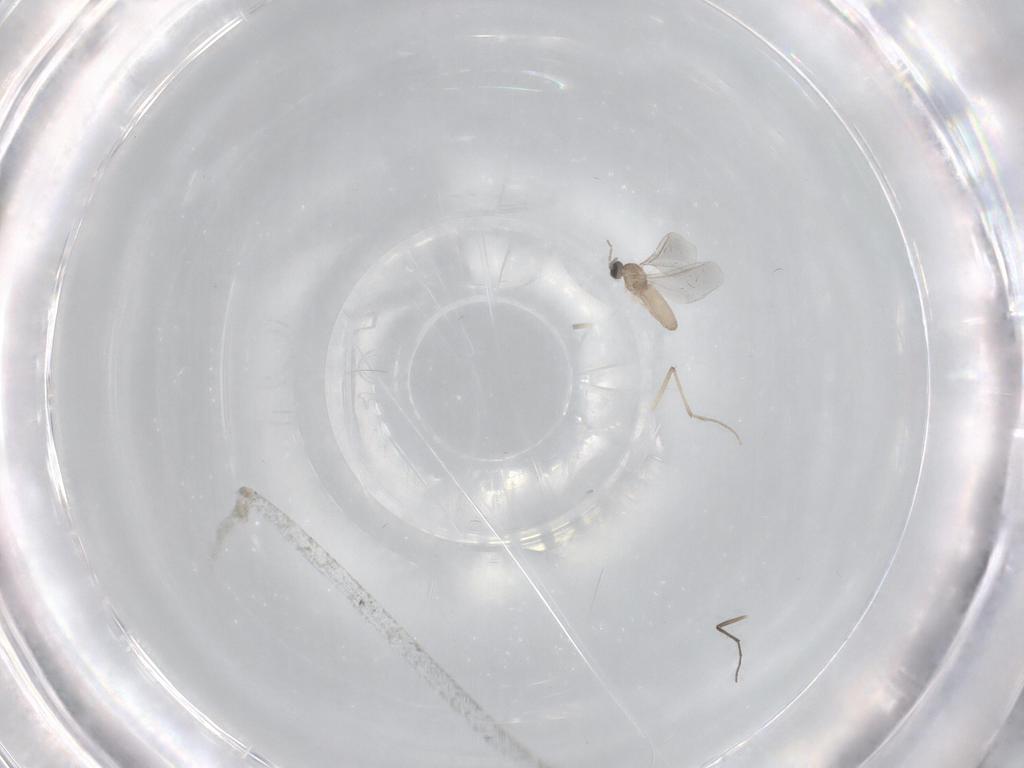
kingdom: Animalia
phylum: Arthropoda
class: Insecta
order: Diptera
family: Cecidomyiidae
